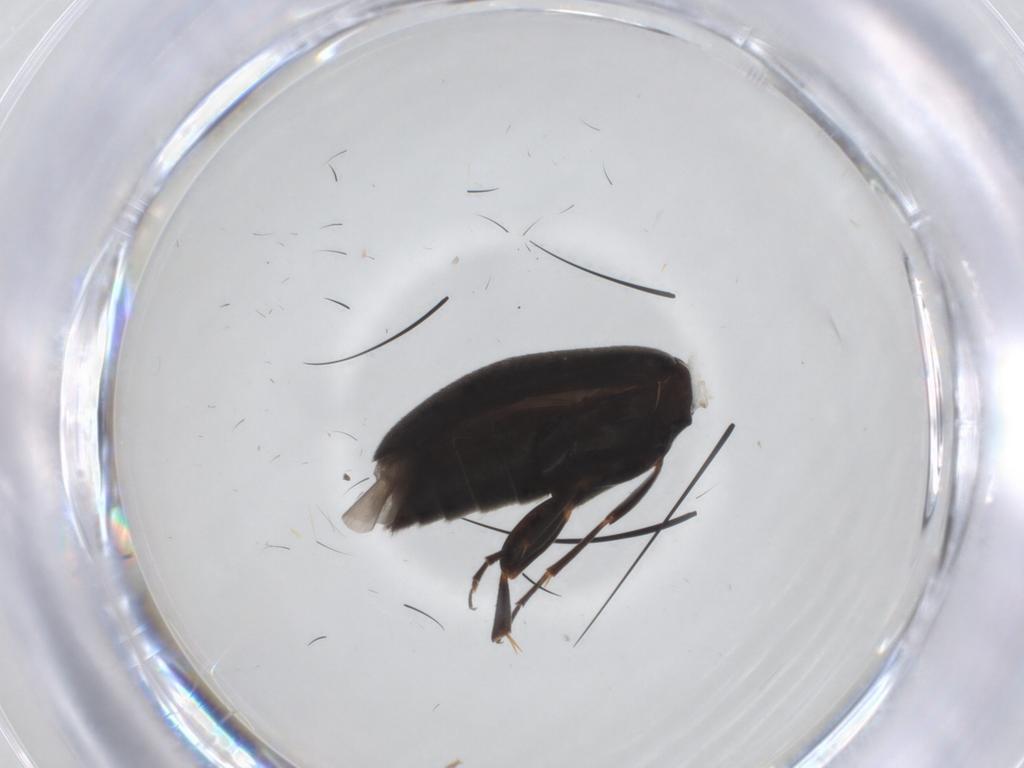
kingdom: Animalia
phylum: Arthropoda
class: Insecta
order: Coleoptera
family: Scraptiidae
